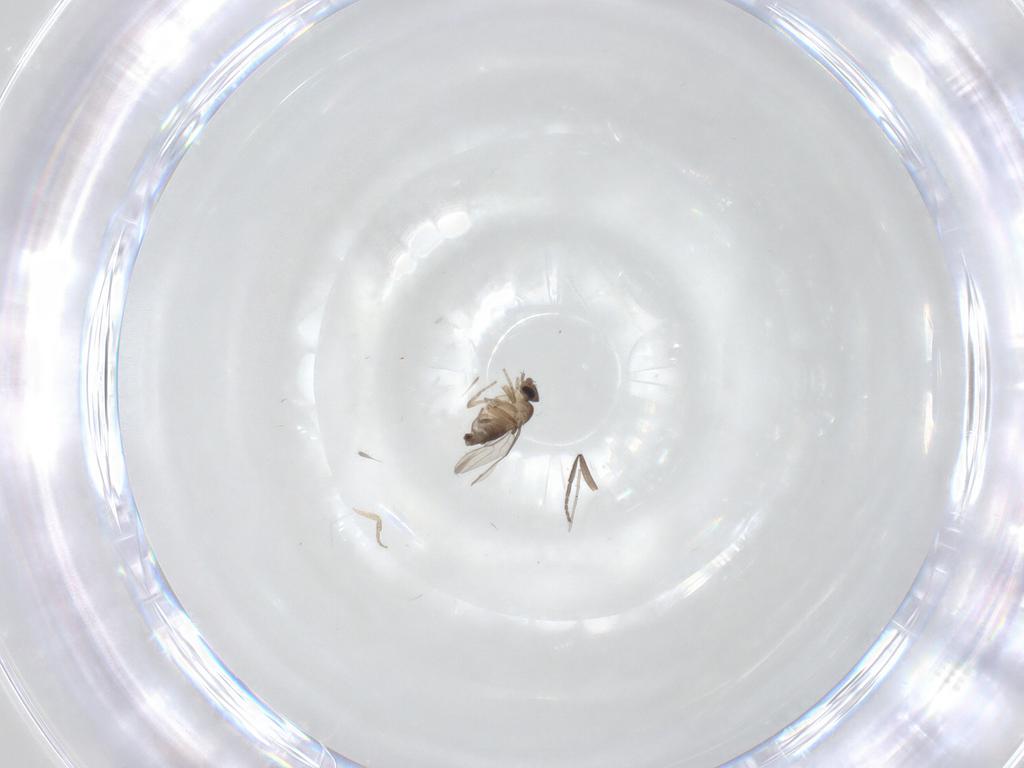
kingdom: Animalia
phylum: Arthropoda
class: Insecta
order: Diptera
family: Phoridae
